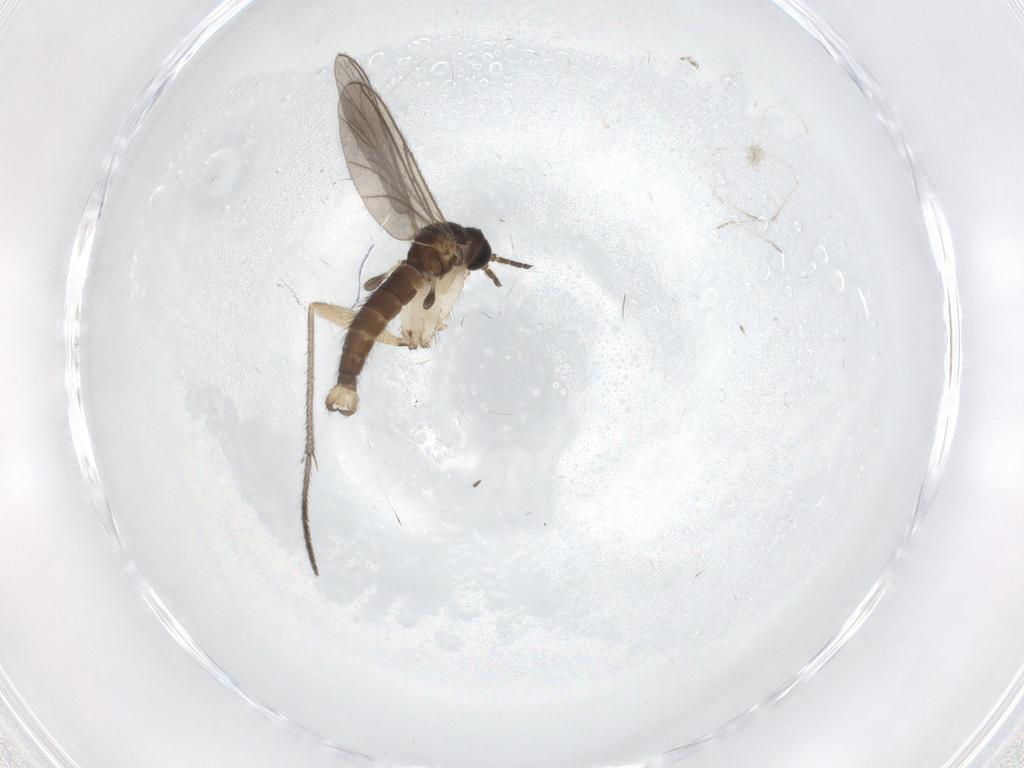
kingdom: Animalia
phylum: Arthropoda
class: Insecta
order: Diptera
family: Sciaridae
